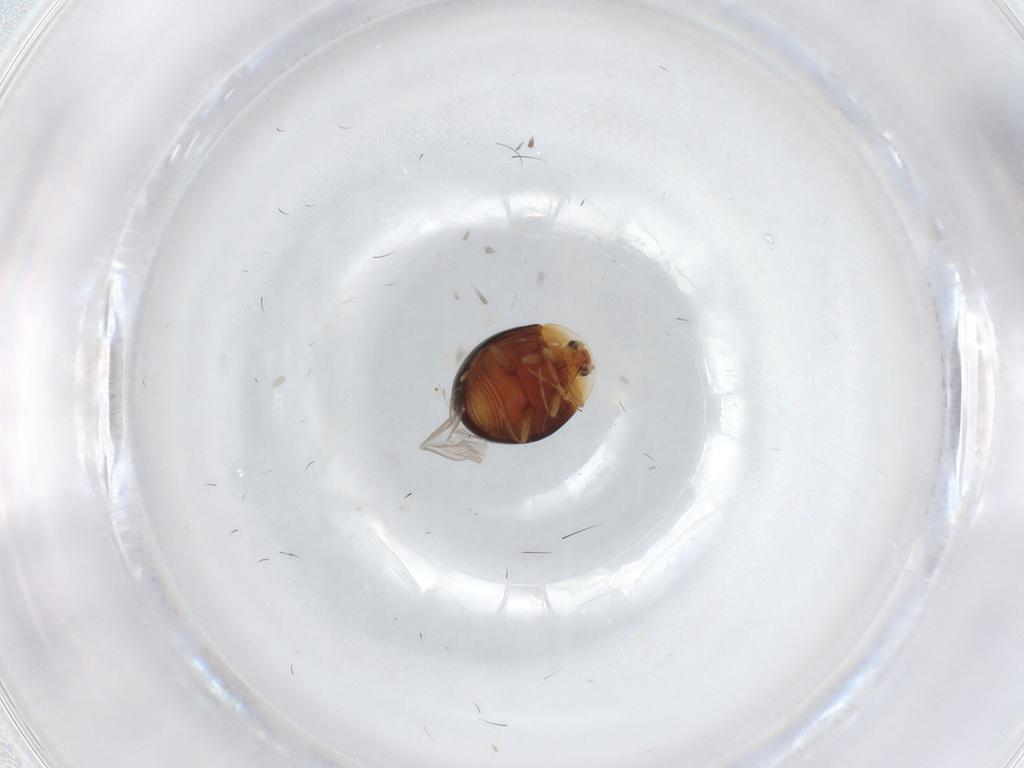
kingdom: Animalia
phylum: Arthropoda
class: Insecta
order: Coleoptera
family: Corylophidae
